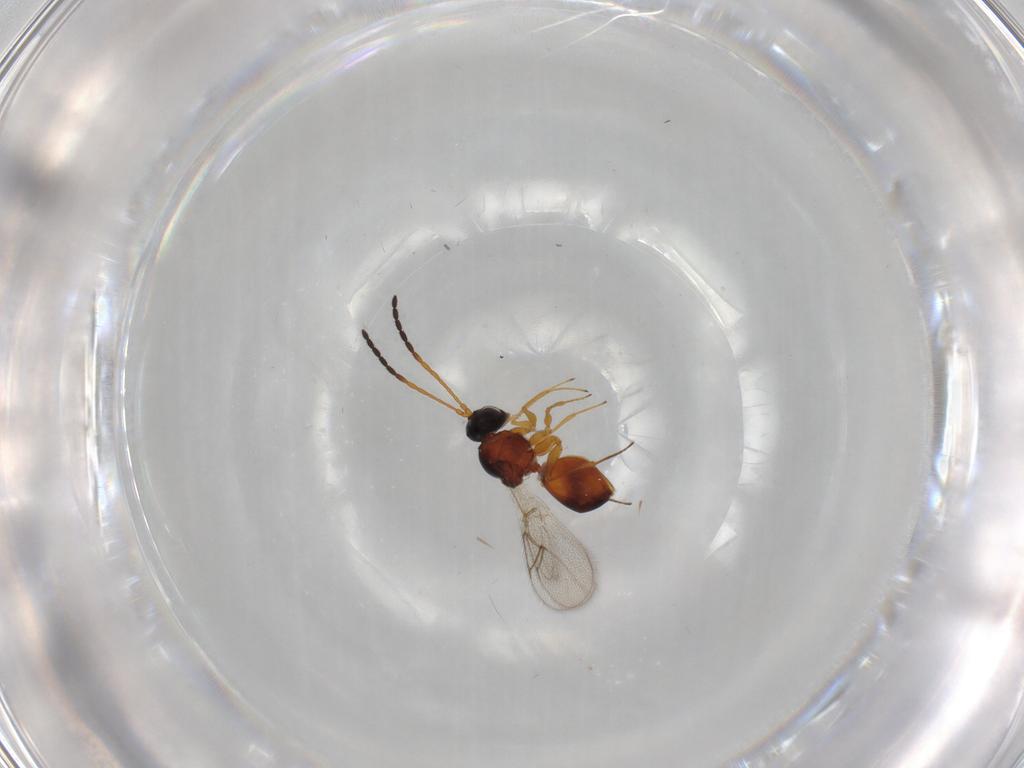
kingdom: Animalia
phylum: Arthropoda
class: Insecta
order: Hymenoptera
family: Figitidae
